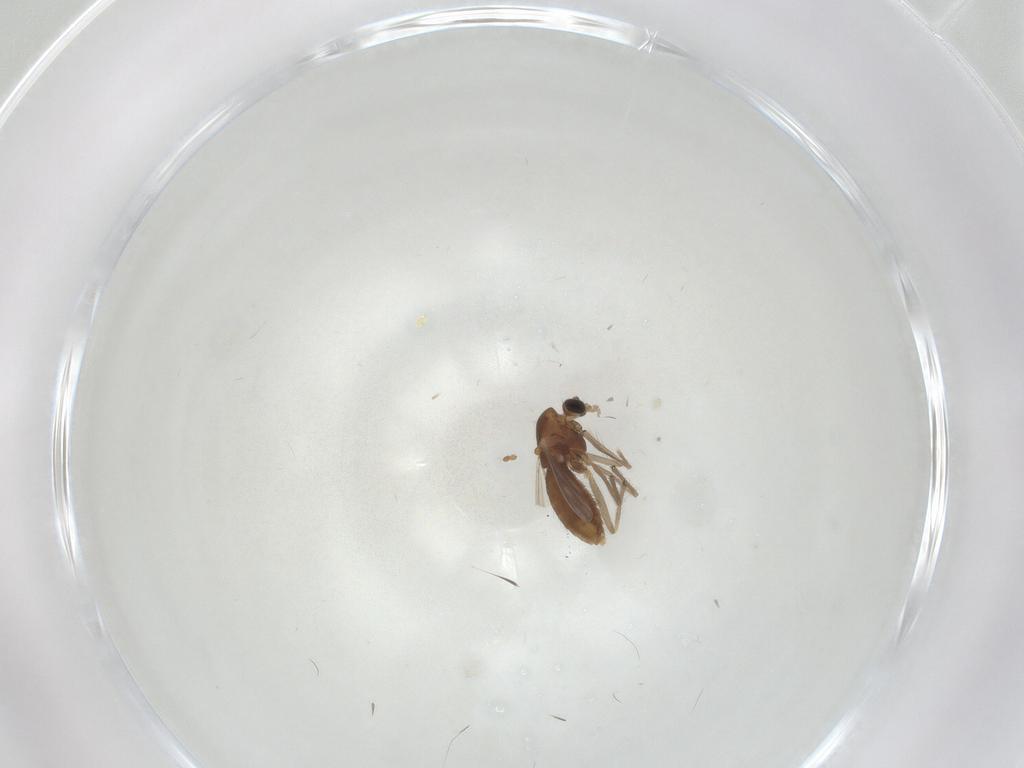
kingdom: Animalia
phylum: Arthropoda
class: Insecta
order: Diptera
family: Chironomidae
